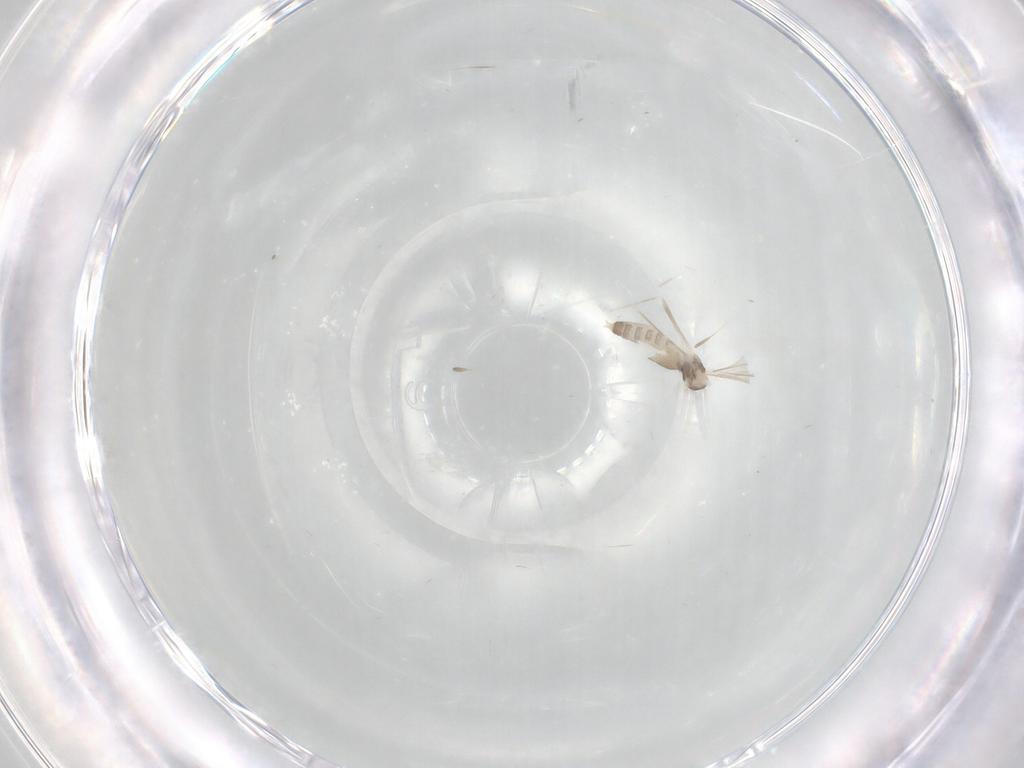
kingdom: Animalia
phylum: Arthropoda
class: Insecta
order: Diptera
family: Cecidomyiidae
